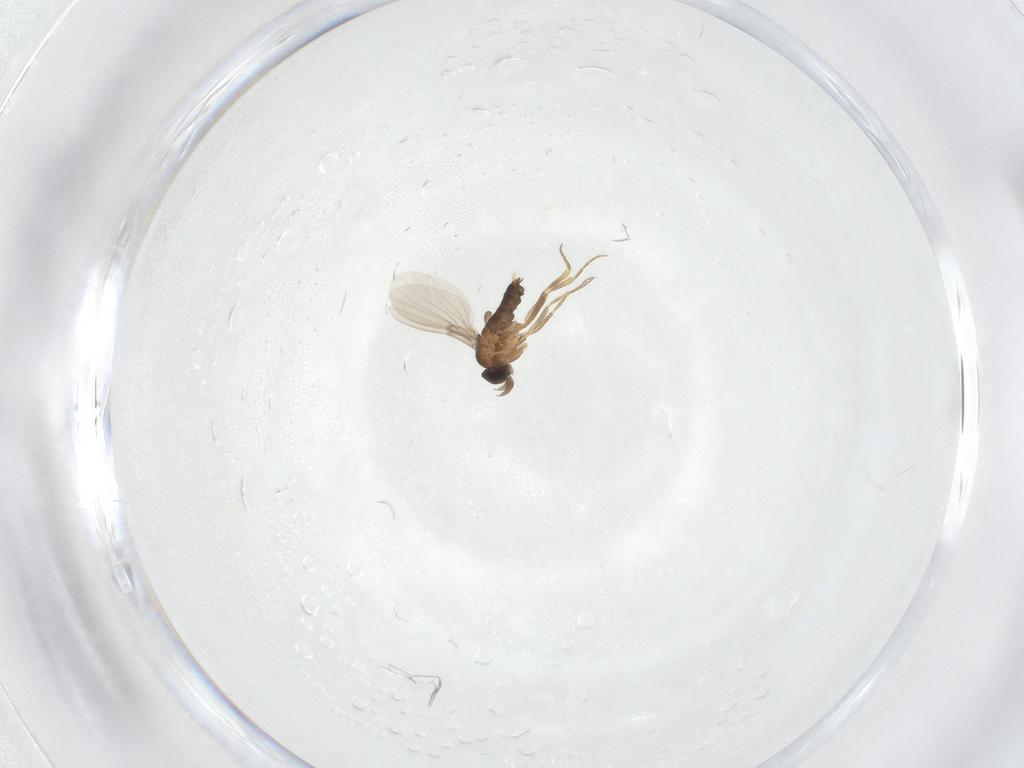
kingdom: Animalia
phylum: Arthropoda
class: Insecta
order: Diptera
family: Phoridae
